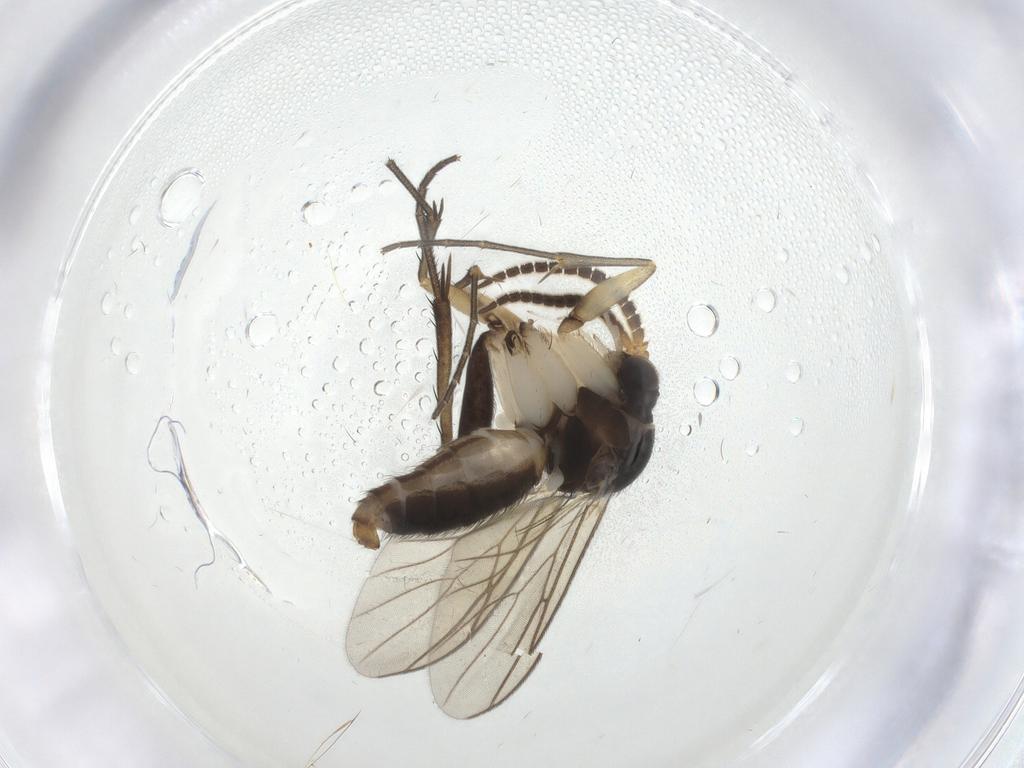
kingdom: Animalia
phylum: Arthropoda
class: Insecta
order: Diptera
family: Mycetophilidae
